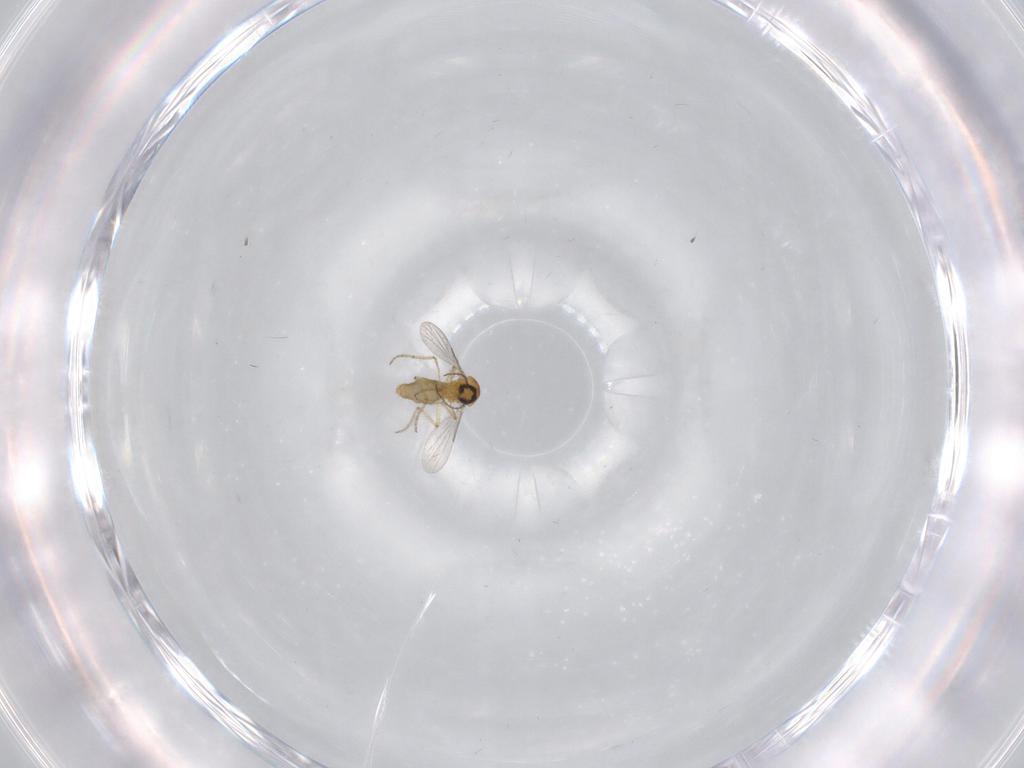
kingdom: Animalia
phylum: Arthropoda
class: Insecta
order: Diptera
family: Ceratopogonidae
